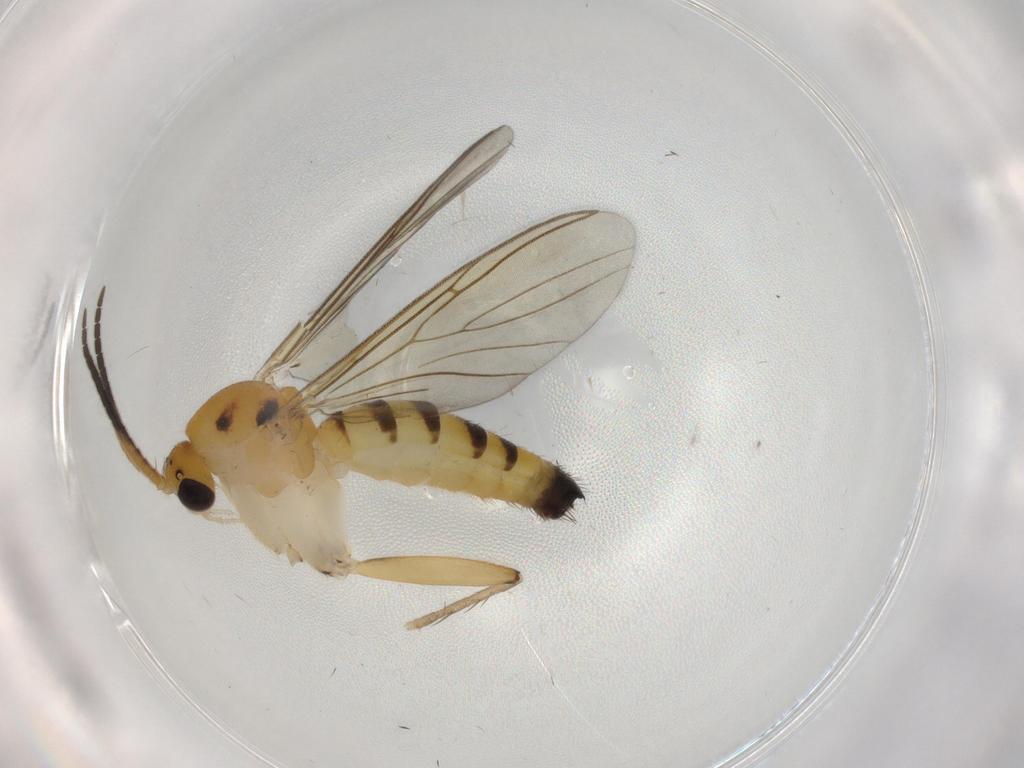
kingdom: Animalia
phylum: Arthropoda
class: Insecta
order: Diptera
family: Mycetophilidae
